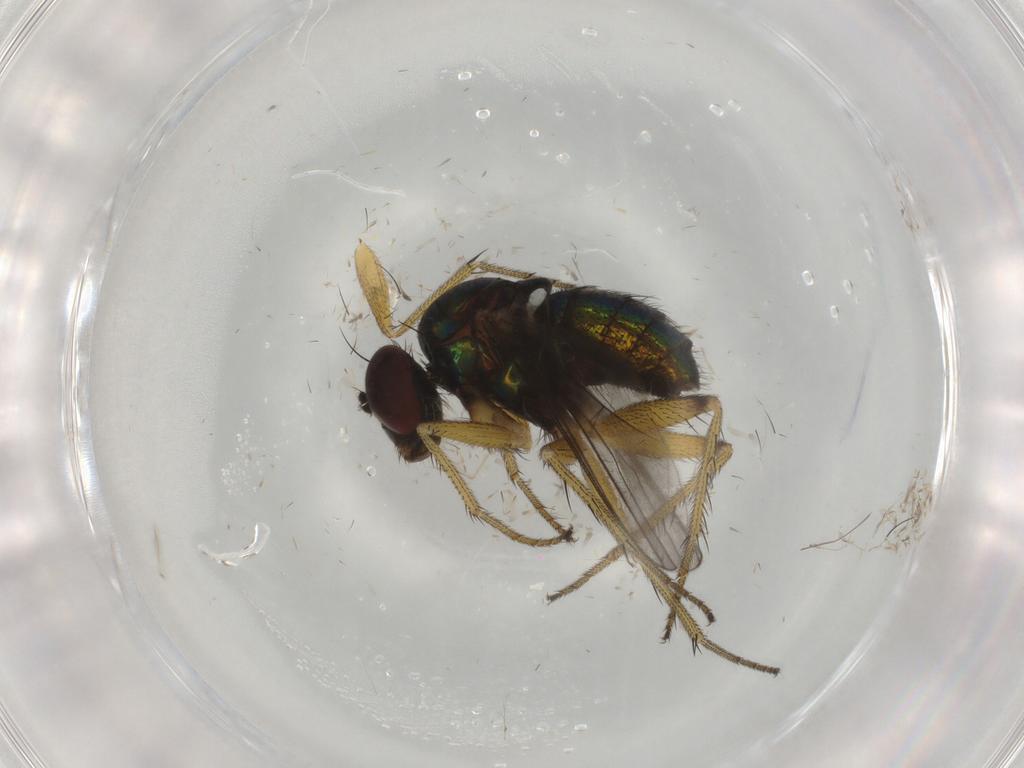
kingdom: Animalia
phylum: Arthropoda
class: Insecta
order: Diptera
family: Dolichopodidae
